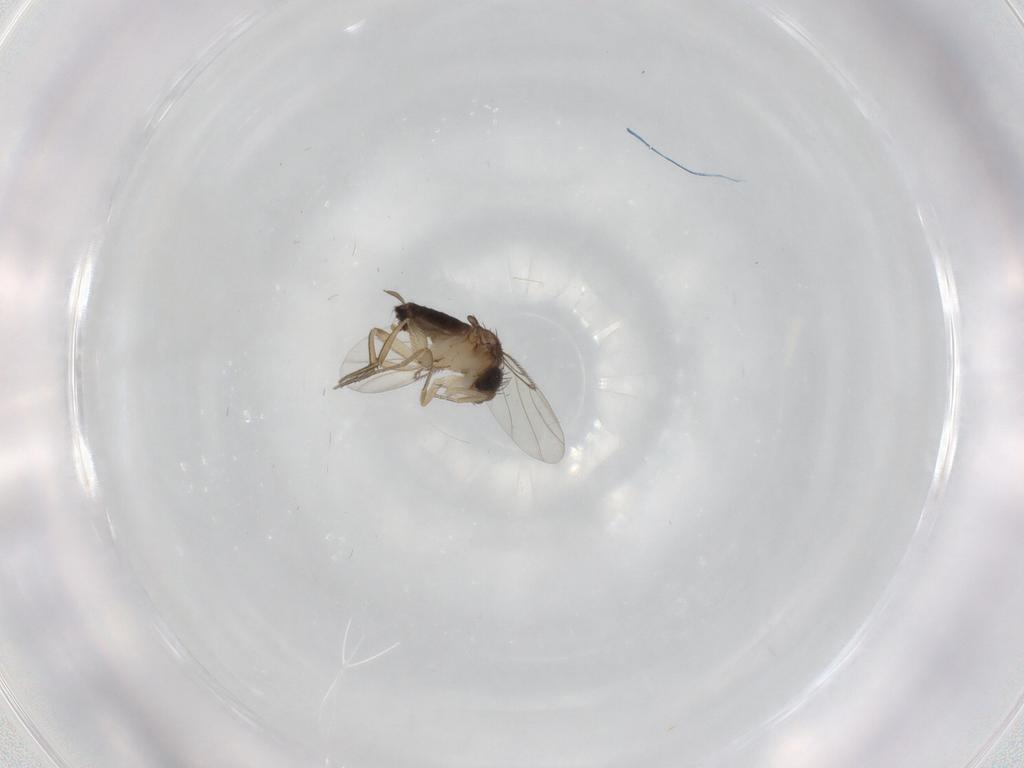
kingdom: Animalia
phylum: Arthropoda
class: Insecta
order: Diptera
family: Cecidomyiidae
